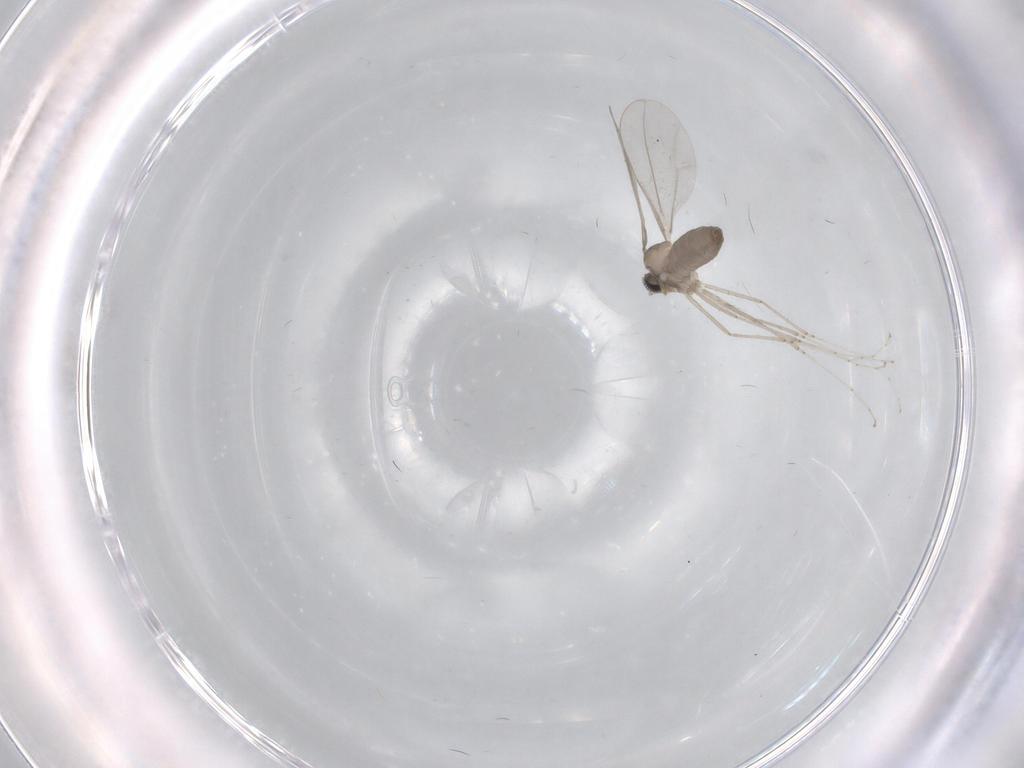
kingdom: Animalia
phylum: Arthropoda
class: Insecta
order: Diptera
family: Cecidomyiidae
